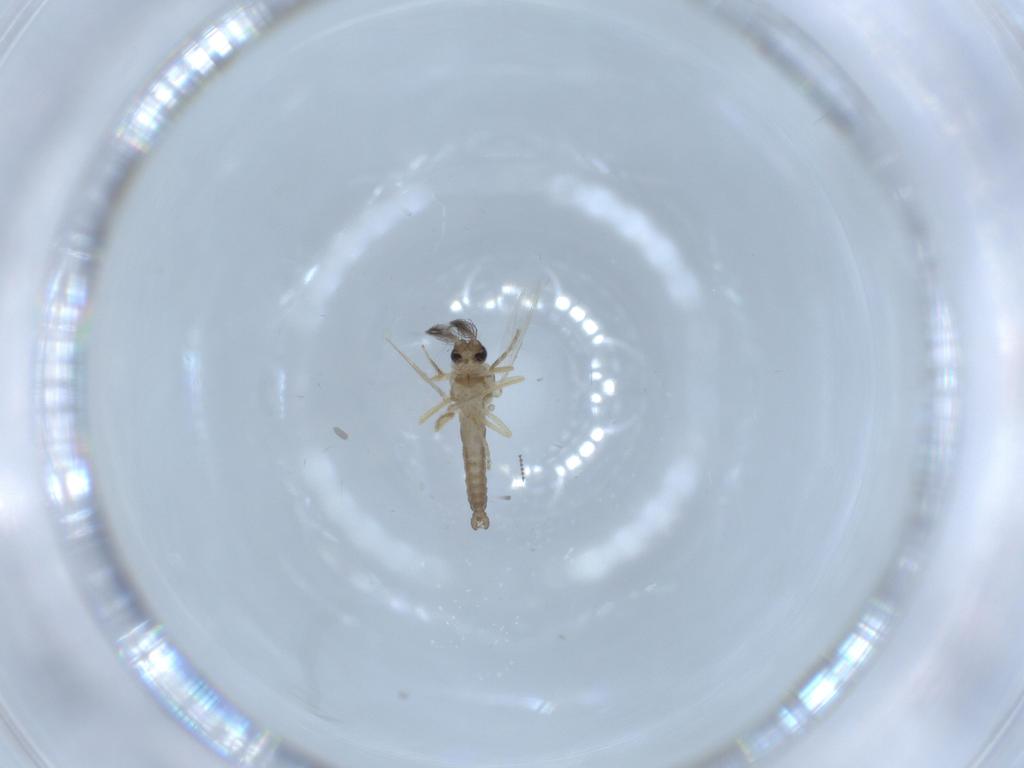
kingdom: Animalia
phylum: Arthropoda
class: Insecta
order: Diptera
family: Ceratopogonidae
